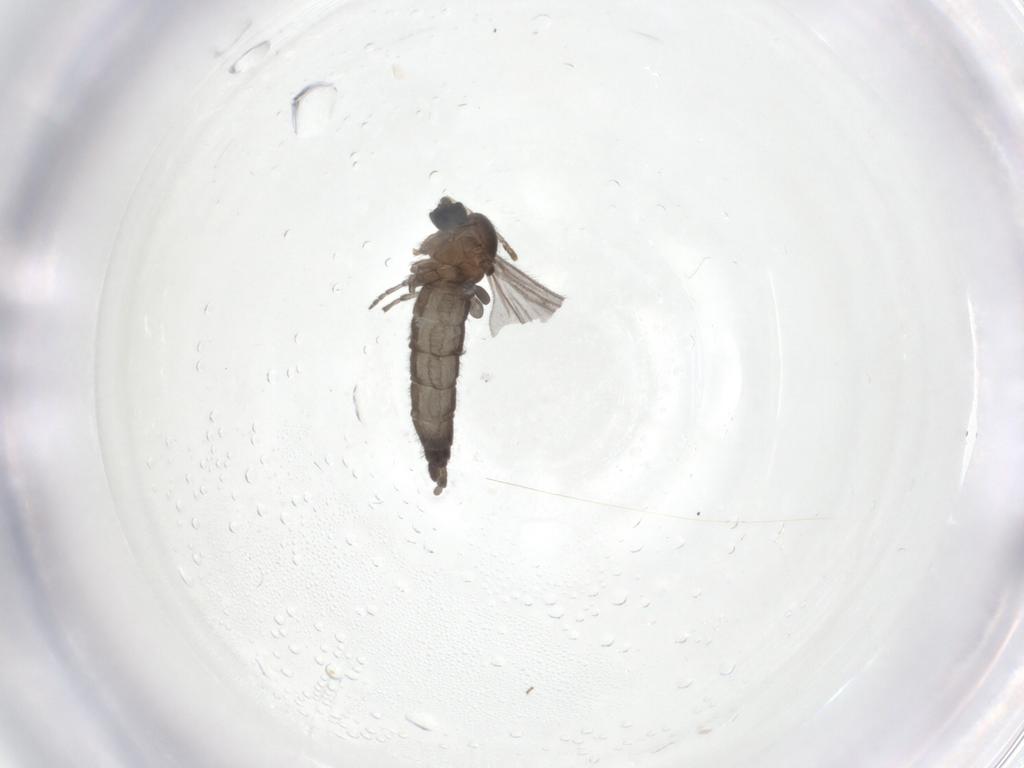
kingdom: Animalia
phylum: Arthropoda
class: Insecta
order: Diptera
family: Sciaridae
